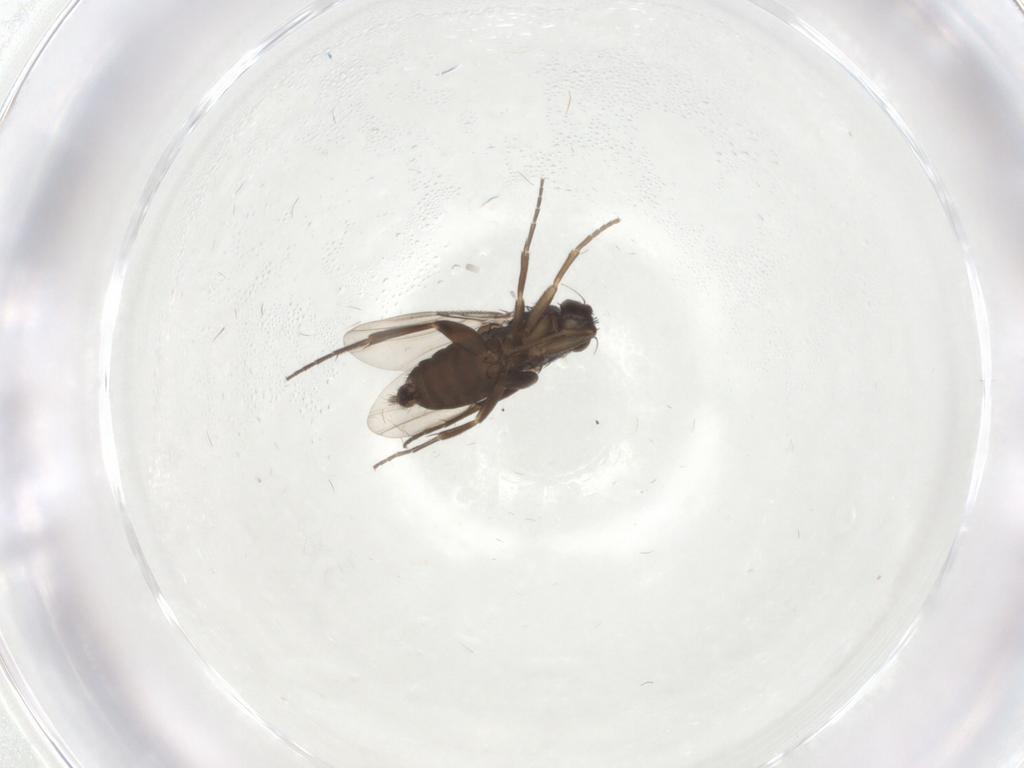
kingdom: Animalia
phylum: Arthropoda
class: Insecta
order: Diptera
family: Phoridae
